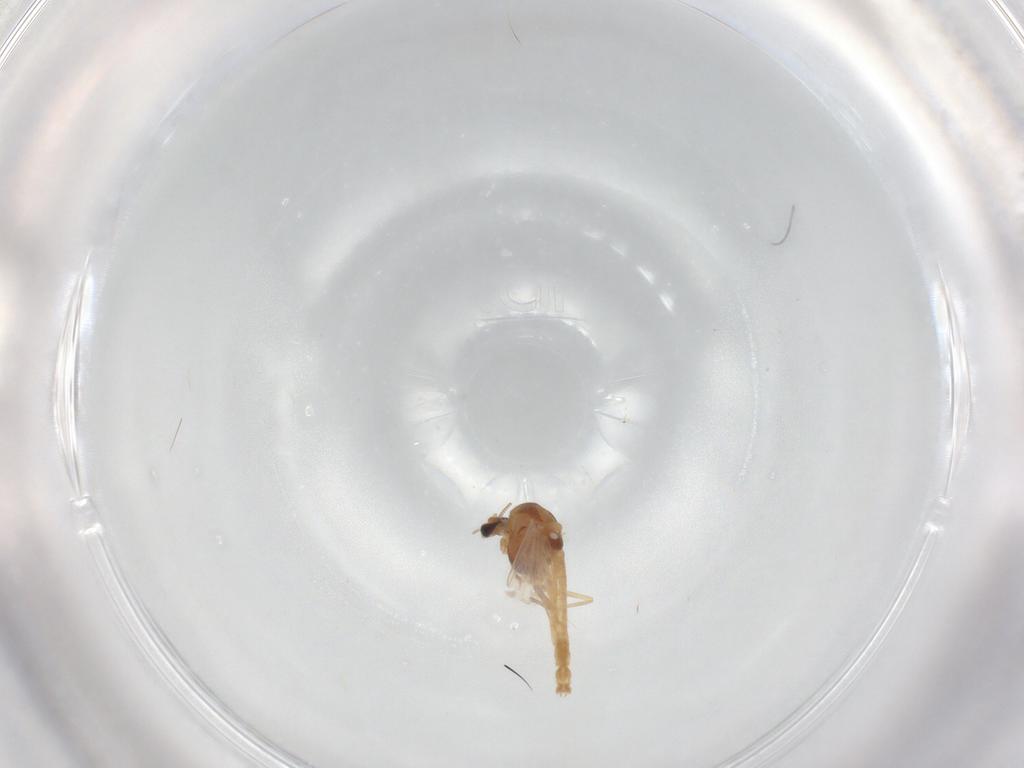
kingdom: Animalia
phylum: Arthropoda
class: Insecta
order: Diptera
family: Chironomidae
